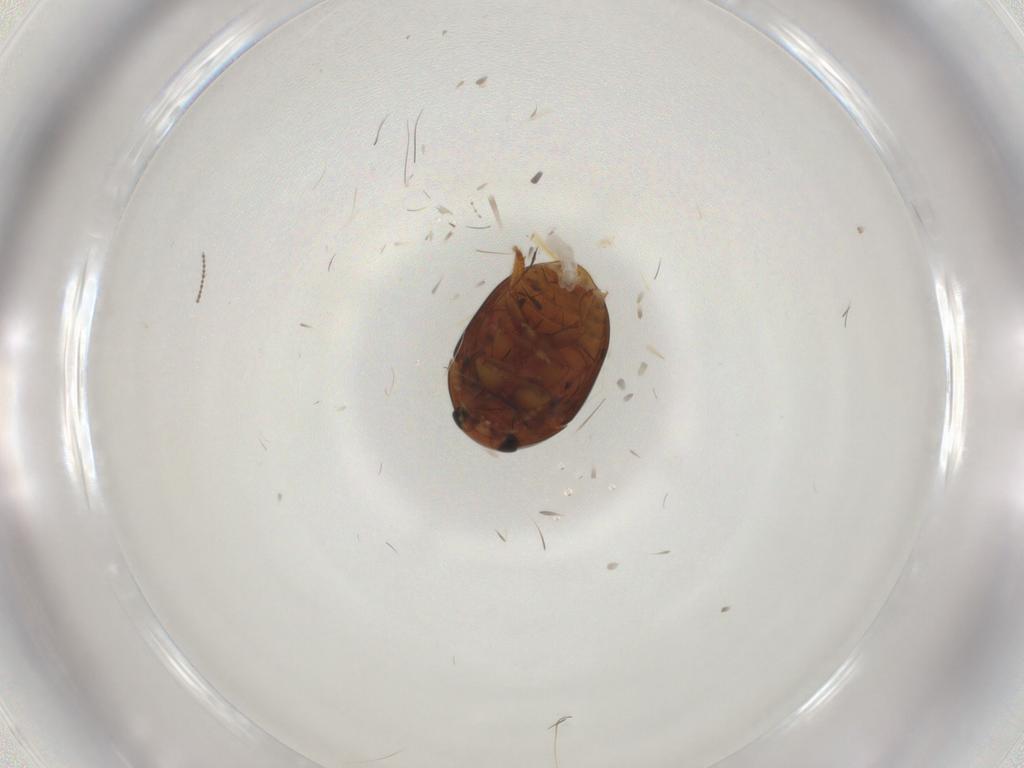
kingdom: Animalia
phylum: Arthropoda
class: Insecta
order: Coleoptera
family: Phalacridae
